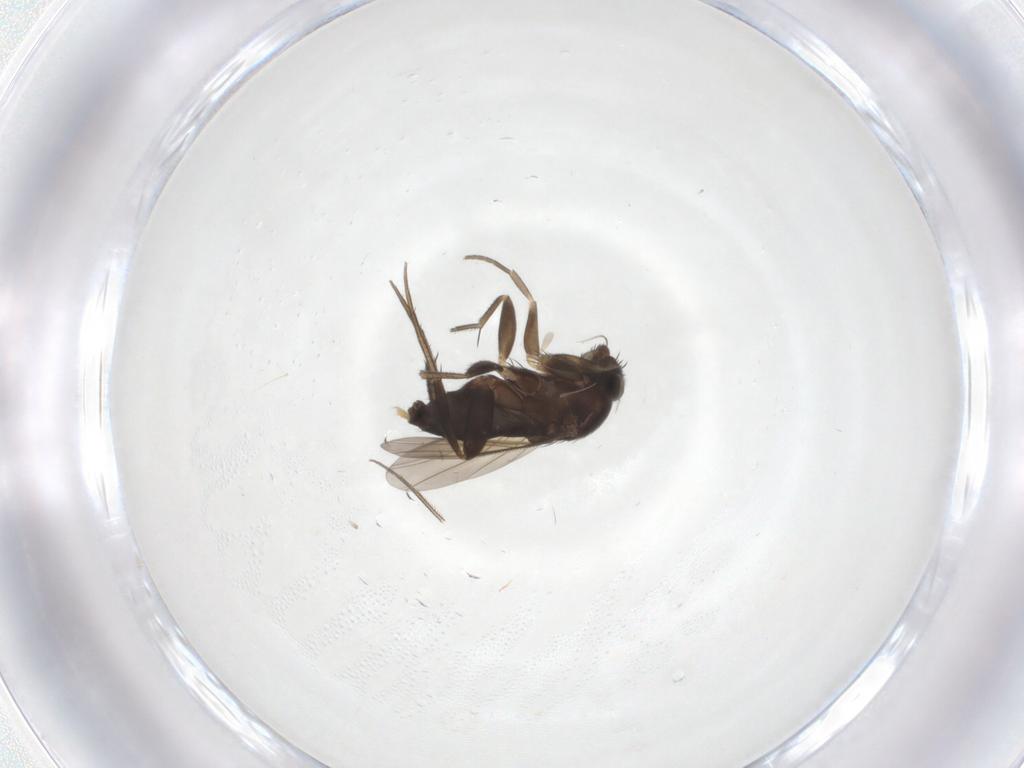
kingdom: Animalia
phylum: Arthropoda
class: Insecta
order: Diptera
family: Phoridae
